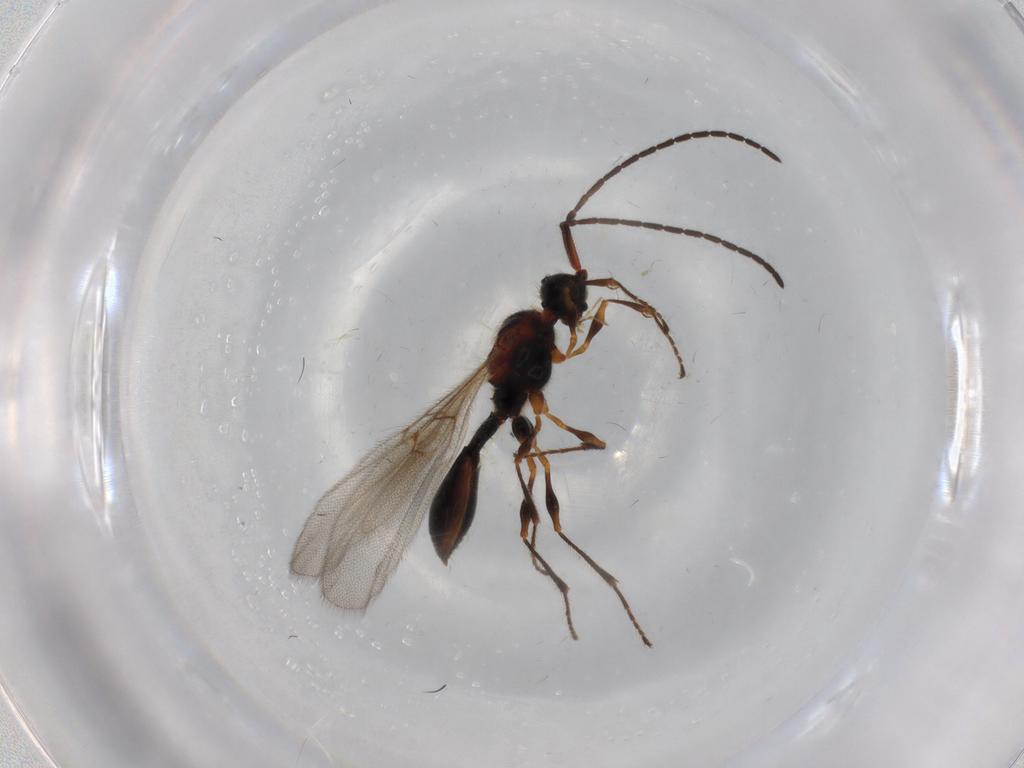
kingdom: Animalia
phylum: Arthropoda
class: Insecta
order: Hymenoptera
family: Diapriidae
